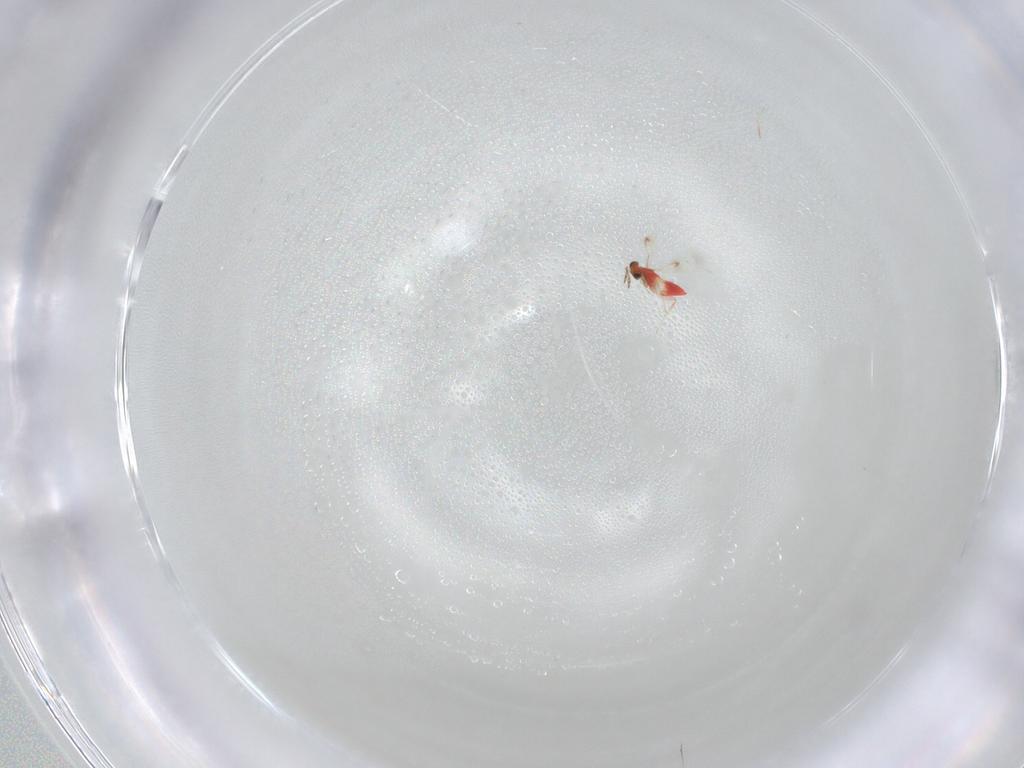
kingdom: Animalia
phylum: Arthropoda
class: Insecta
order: Hymenoptera
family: Trichogrammatidae
